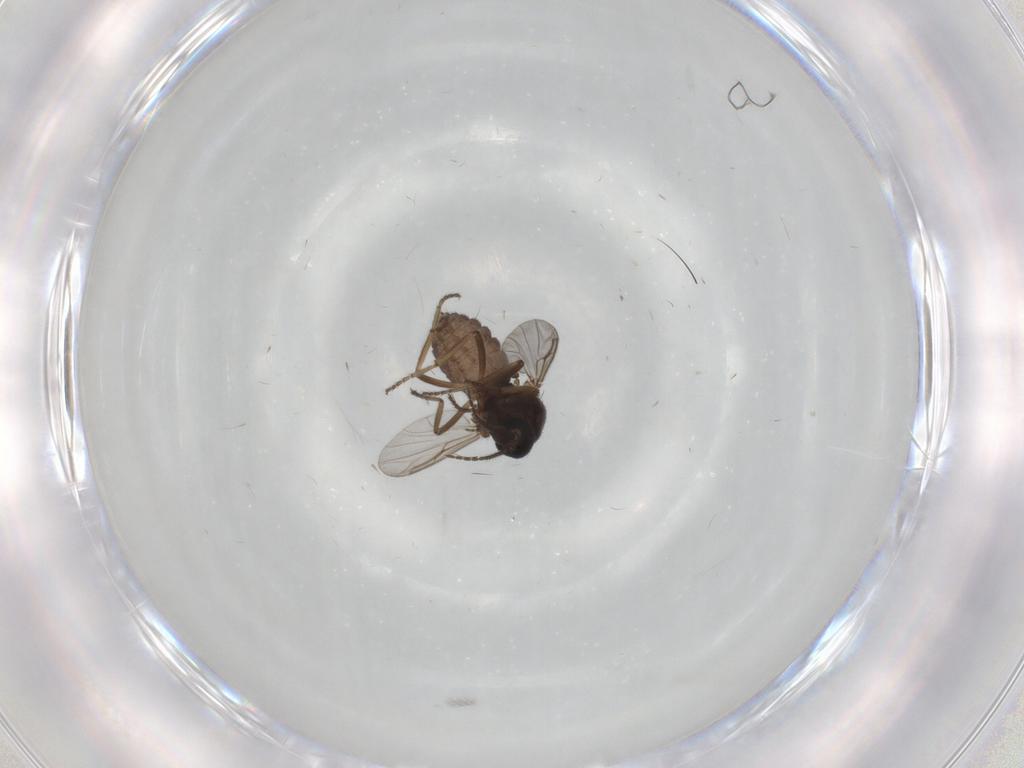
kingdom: Animalia
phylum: Arthropoda
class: Insecta
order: Diptera
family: Ceratopogonidae
